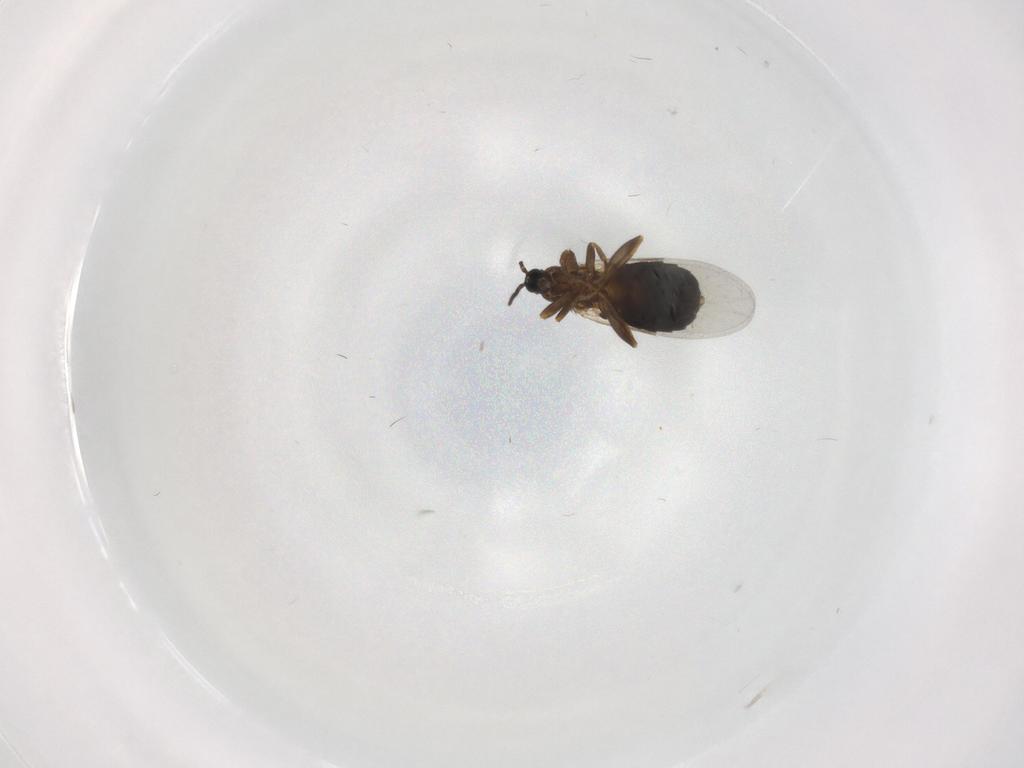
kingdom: Animalia
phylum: Arthropoda
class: Insecta
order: Diptera
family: Scatopsidae
